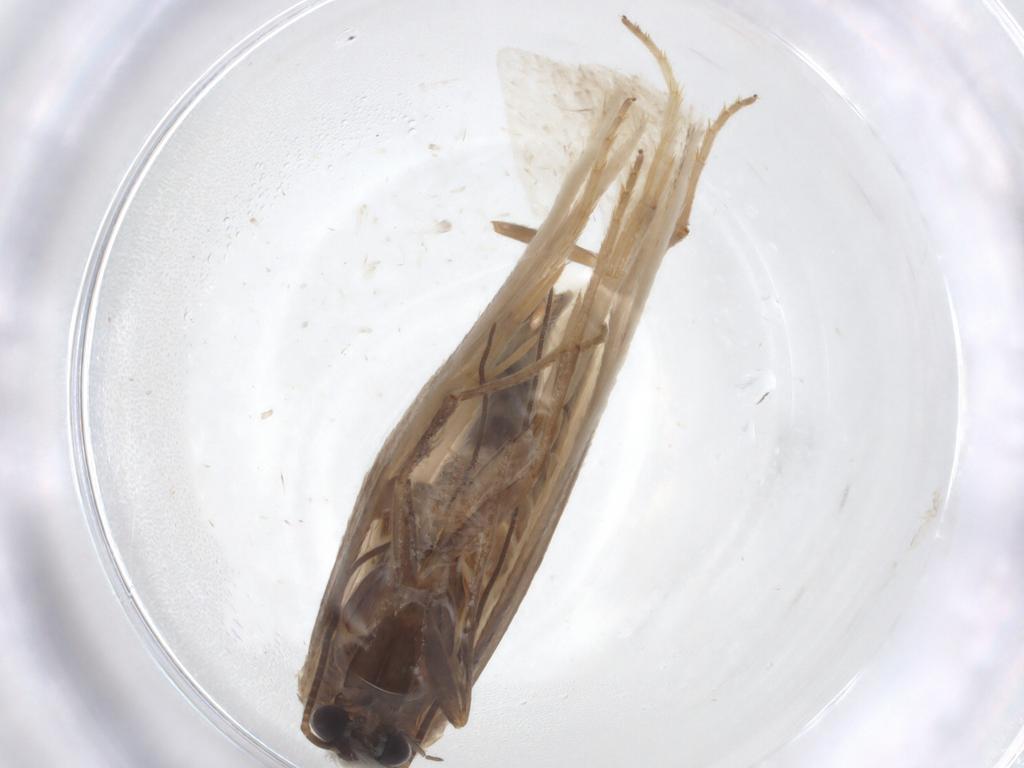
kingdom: Animalia
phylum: Arthropoda
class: Insecta
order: Lepidoptera
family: Tridentaformidae
